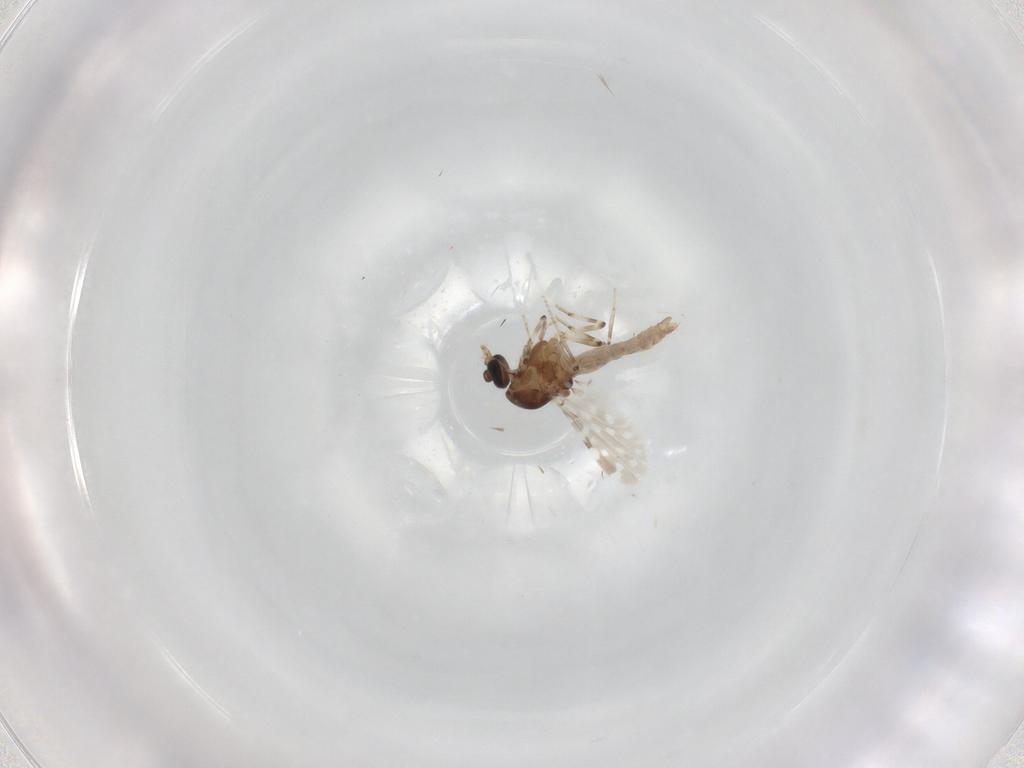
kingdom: Animalia
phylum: Arthropoda
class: Insecta
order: Diptera
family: Ceratopogonidae
